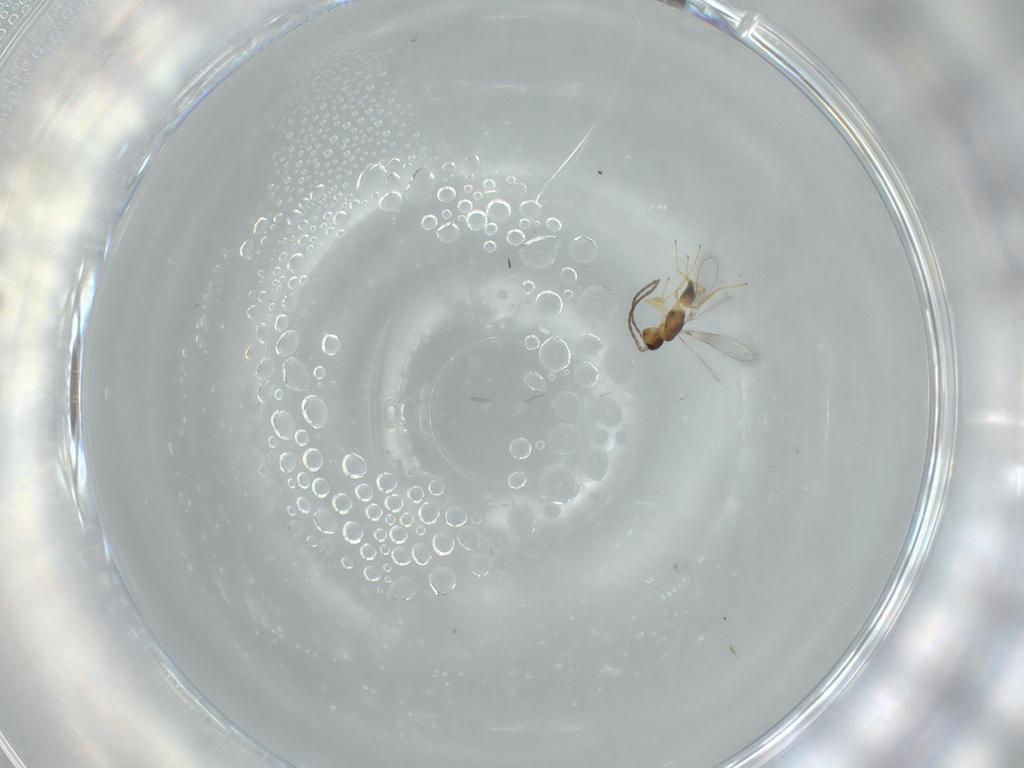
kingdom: Animalia
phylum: Arthropoda
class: Insecta
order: Hymenoptera
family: Mymaridae
